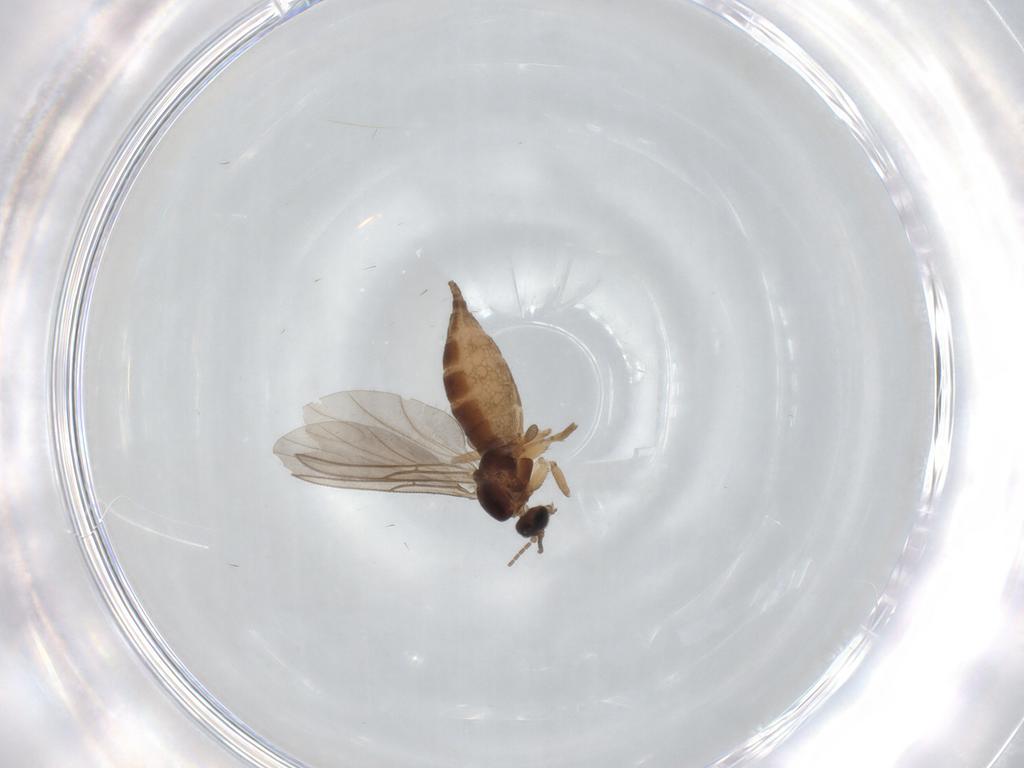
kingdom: Animalia
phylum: Arthropoda
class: Insecta
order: Diptera
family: Sciaridae
